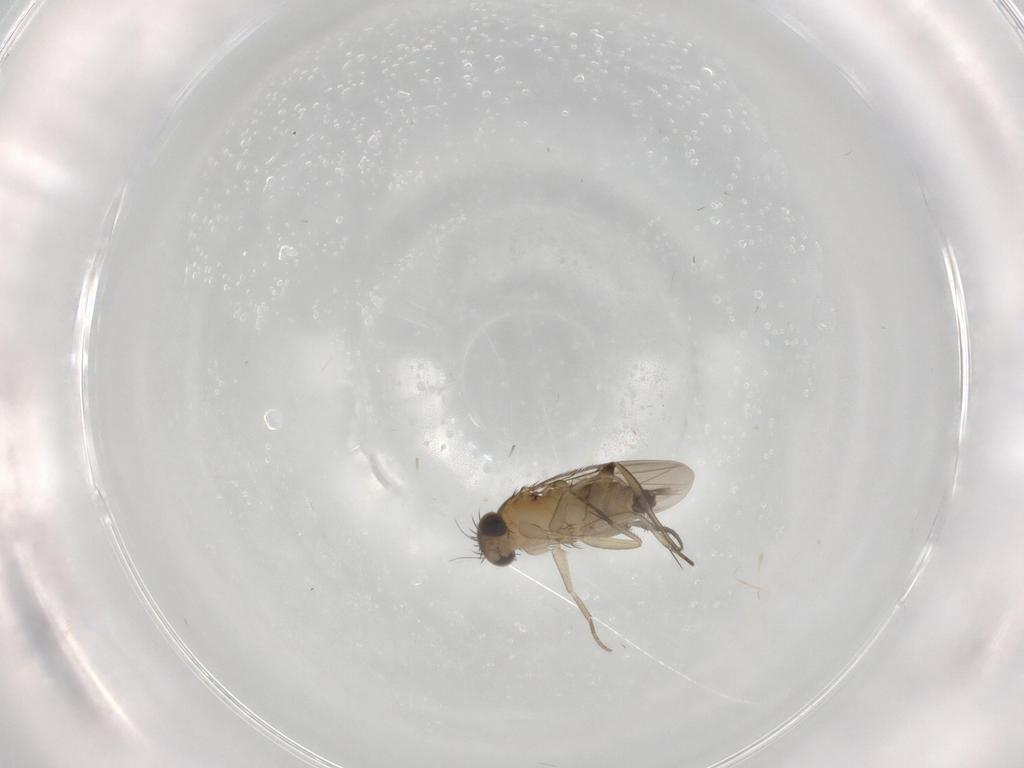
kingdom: Animalia
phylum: Arthropoda
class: Insecta
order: Diptera
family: Phoridae
